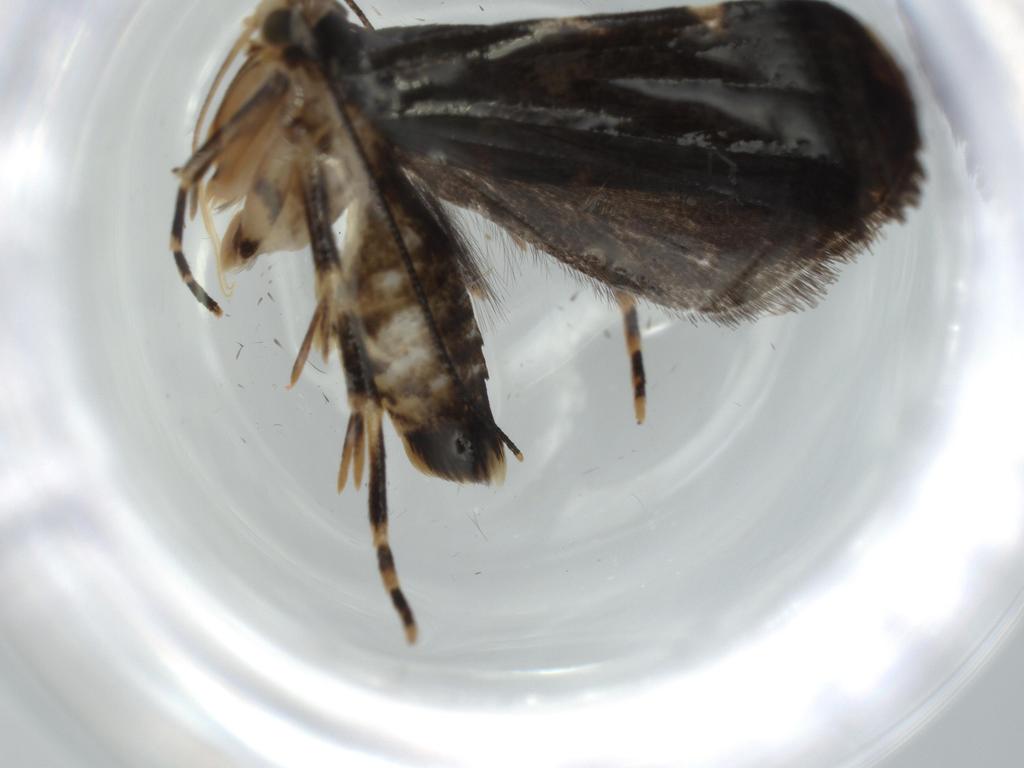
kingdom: Animalia
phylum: Arthropoda
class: Insecta
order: Lepidoptera
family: Cosmopterigidae
